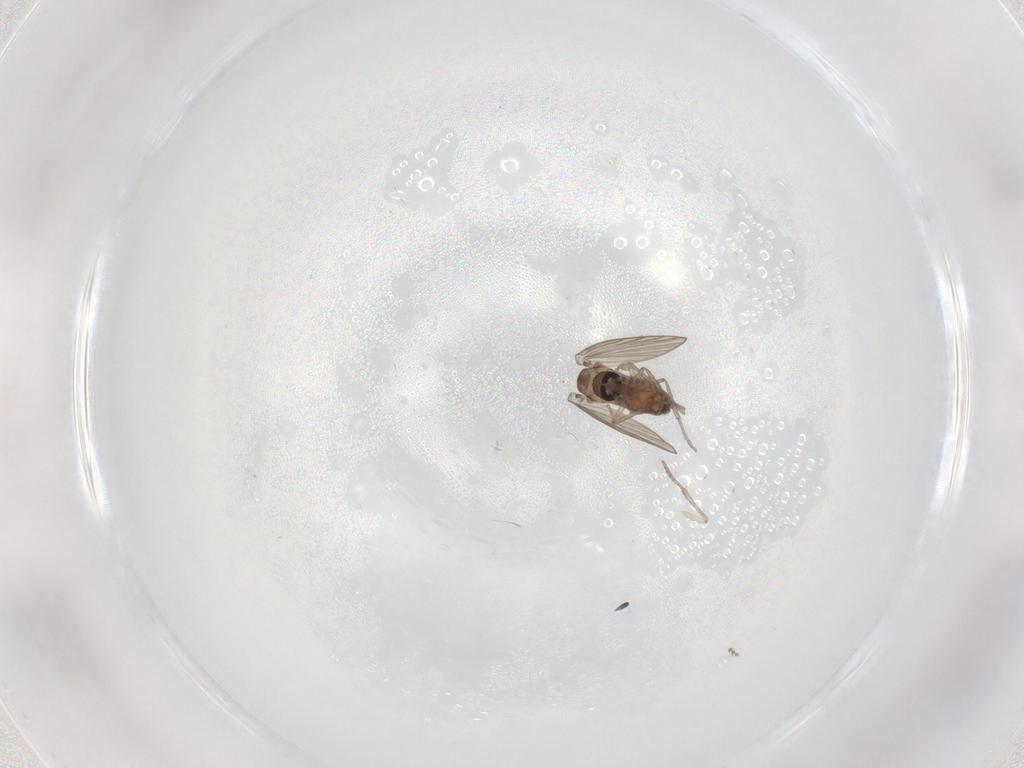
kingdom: Animalia
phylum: Arthropoda
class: Insecta
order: Diptera
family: Psychodidae
